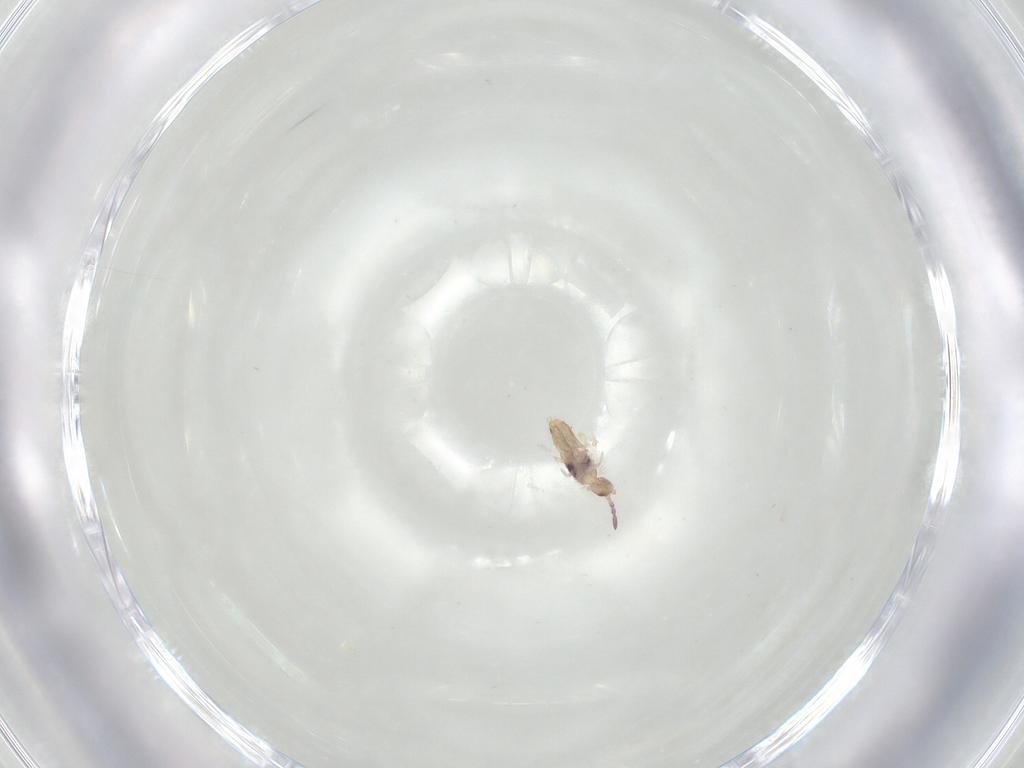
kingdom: Animalia
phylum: Arthropoda
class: Collembola
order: Entomobryomorpha
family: Entomobryidae
